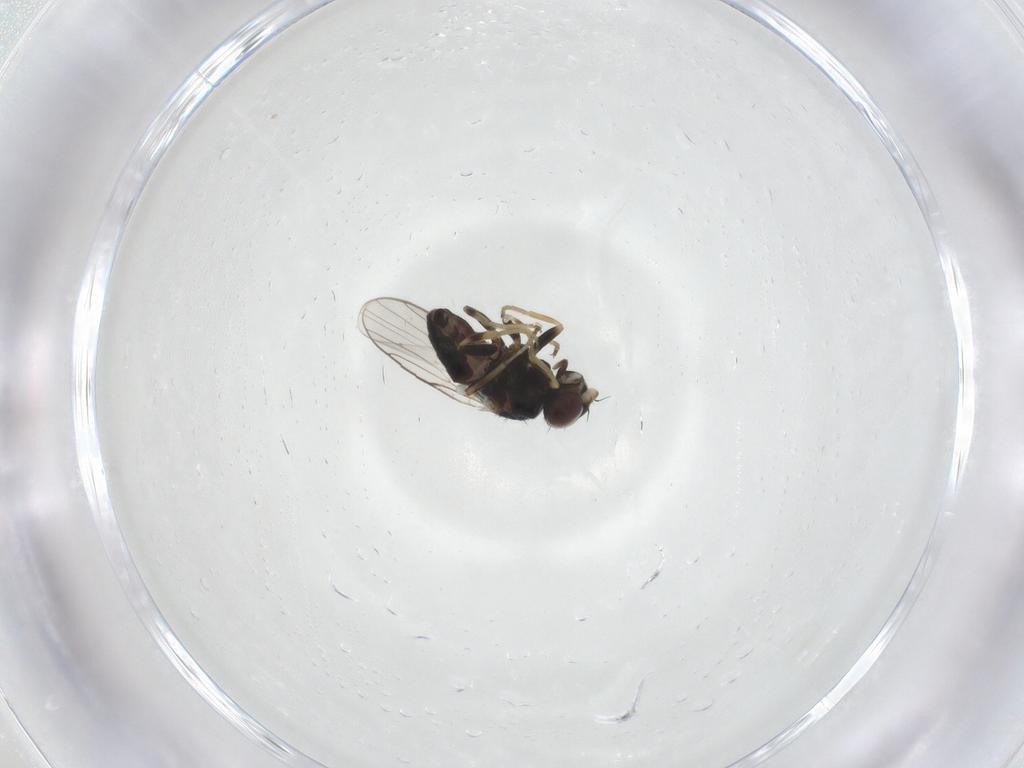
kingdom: Animalia
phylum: Arthropoda
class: Insecta
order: Diptera
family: Chloropidae
